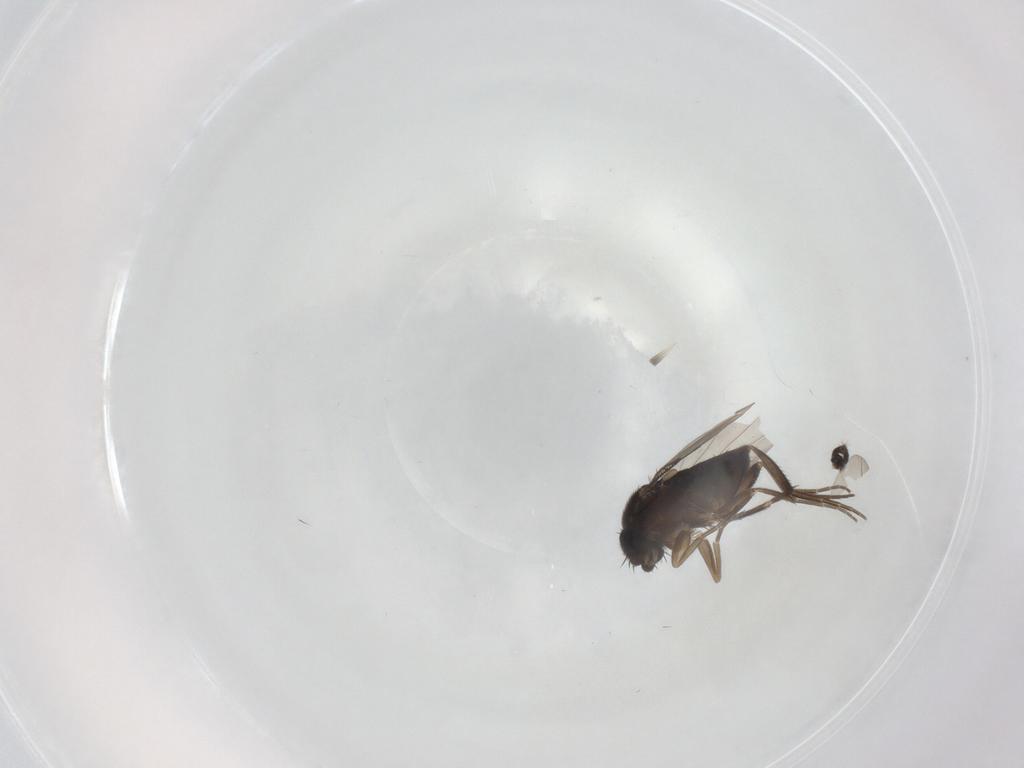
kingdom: Animalia
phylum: Arthropoda
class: Insecta
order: Diptera
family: Phoridae
